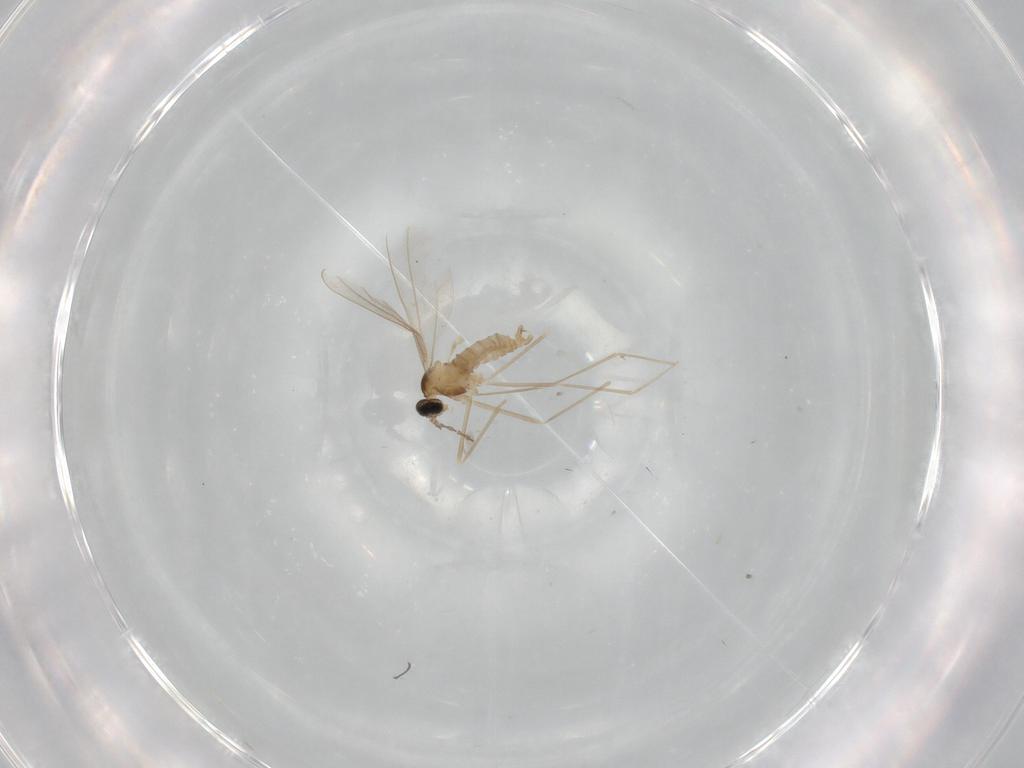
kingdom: Animalia
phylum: Arthropoda
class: Insecta
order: Diptera
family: Cecidomyiidae
